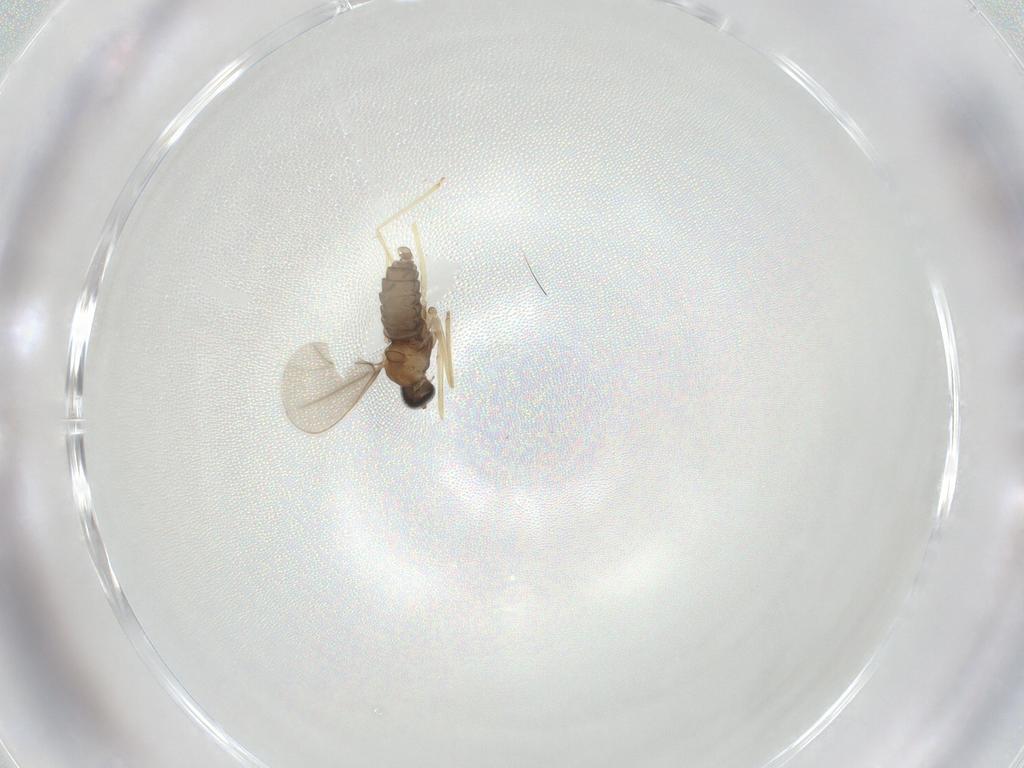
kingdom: Animalia
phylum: Arthropoda
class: Insecta
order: Diptera
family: Cecidomyiidae
